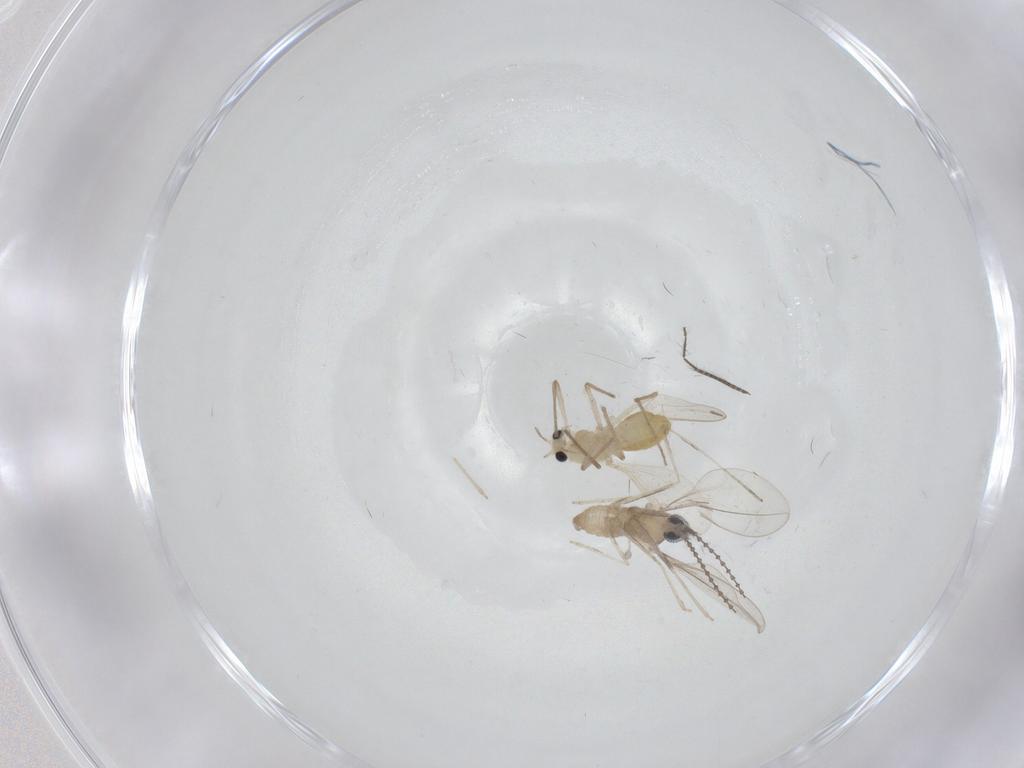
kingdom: Animalia
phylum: Arthropoda
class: Insecta
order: Diptera
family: Cecidomyiidae
